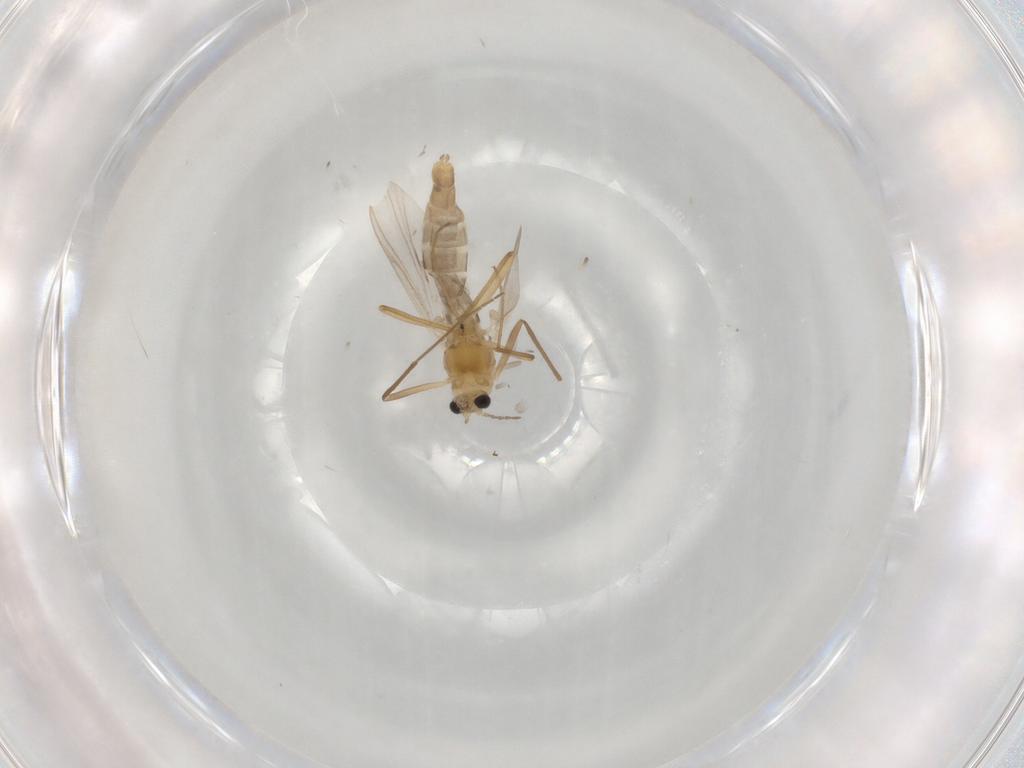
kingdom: Animalia
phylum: Arthropoda
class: Insecta
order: Diptera
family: Chironomidae
